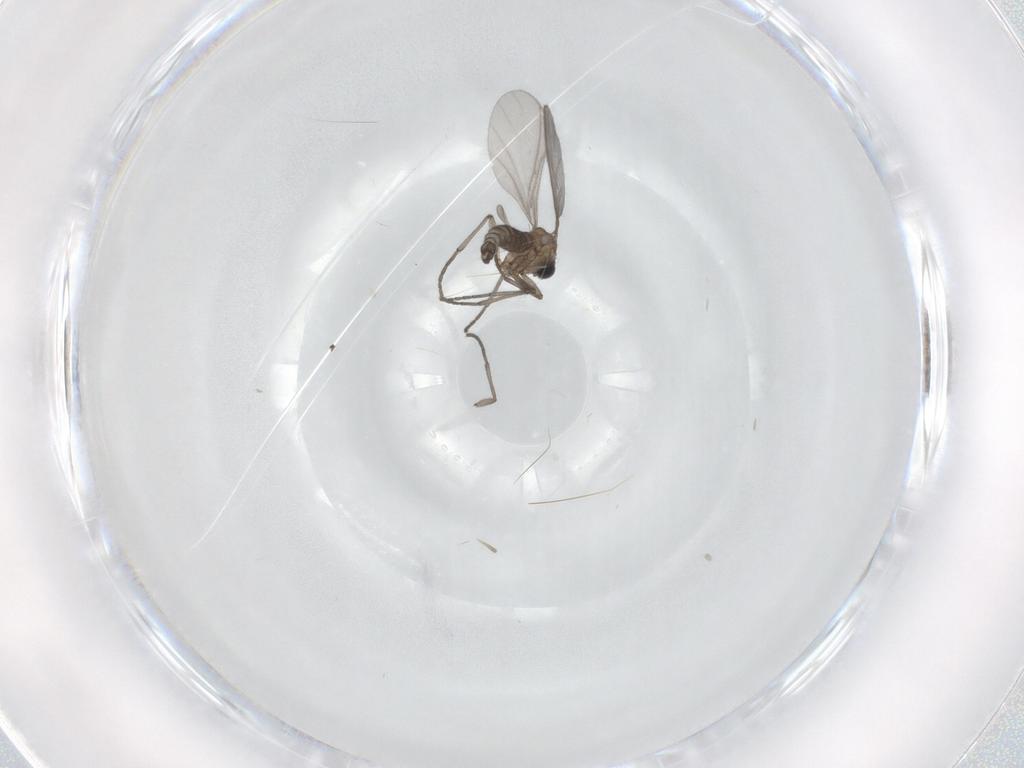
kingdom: Animalia
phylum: Arthropoda
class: Insecta
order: Diptera
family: Sciaridae
